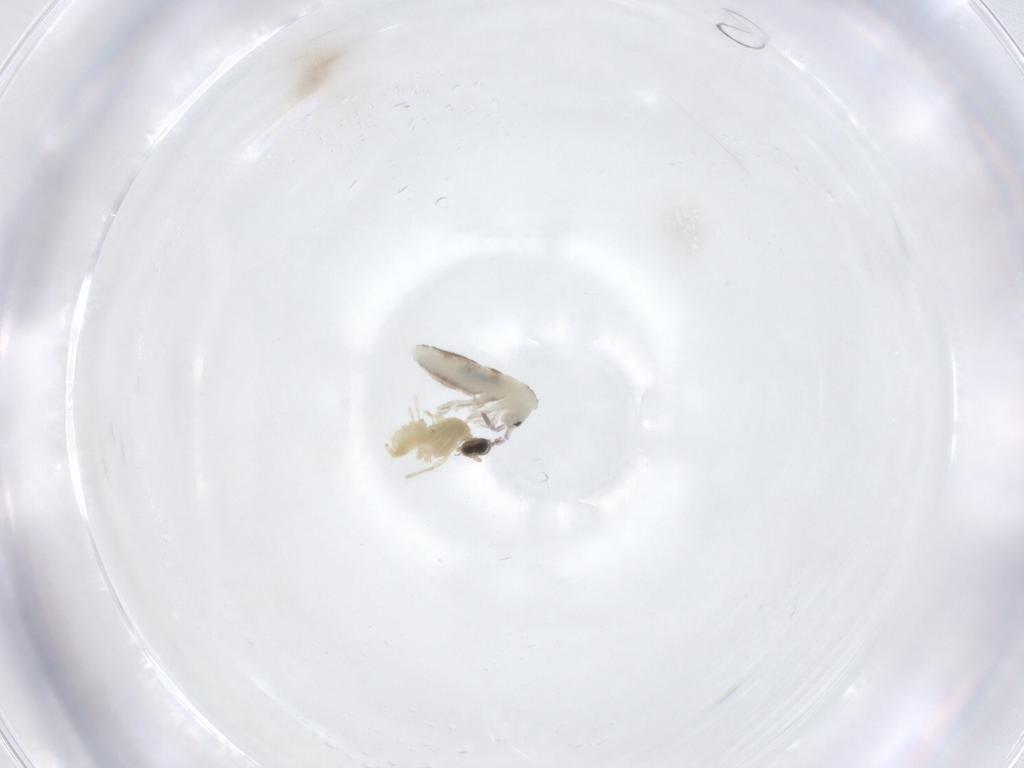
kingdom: Animalia
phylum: Arthropoda
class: Insecta
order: Diptera
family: Cecidomyiidae
